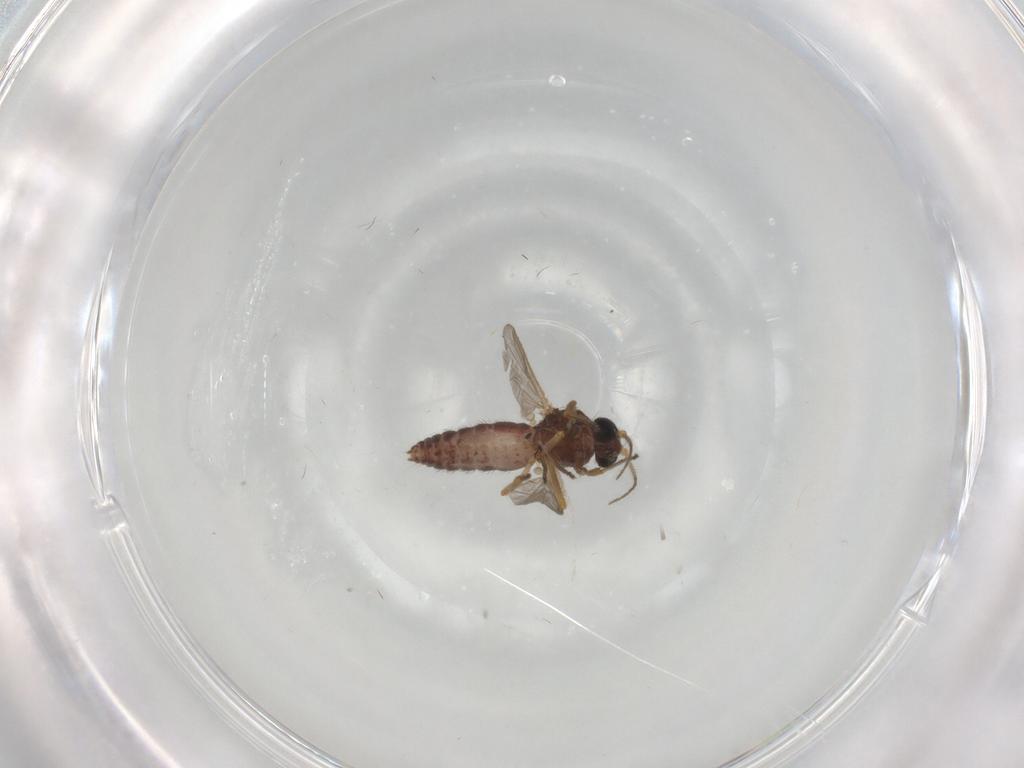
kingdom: Animalia
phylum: Arthropoda
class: Insecta
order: Diptera
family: Ceratopogonidae
